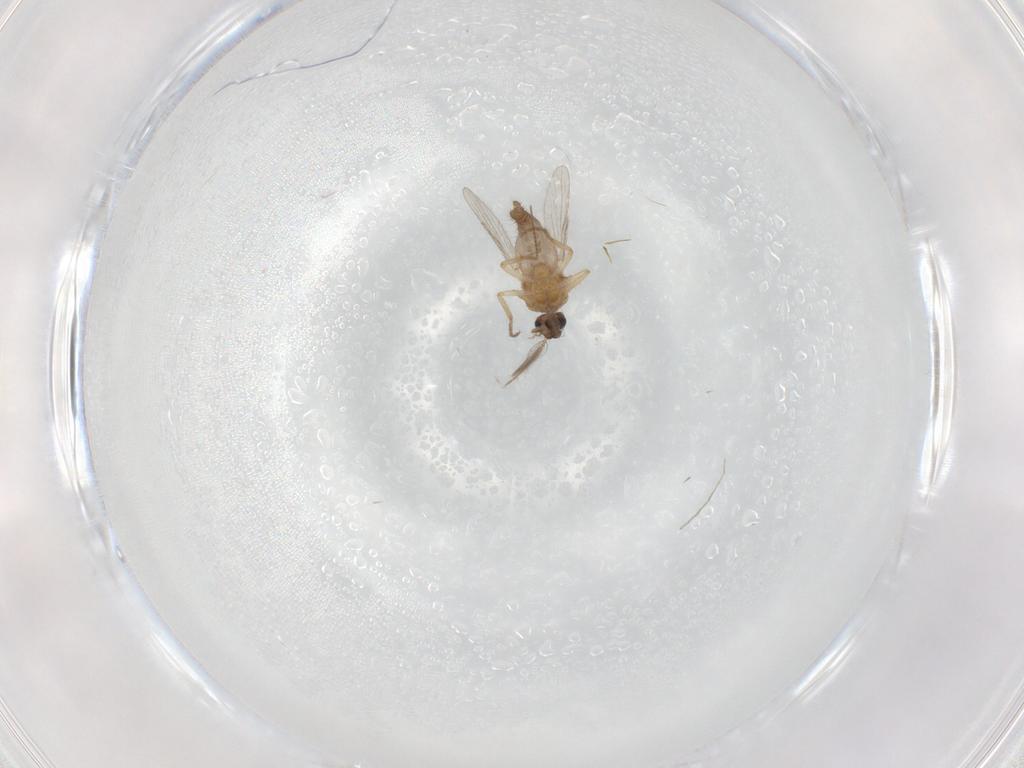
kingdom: Animalia
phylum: Arthropoda
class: Insecta
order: Diptera
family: Chironomidae
